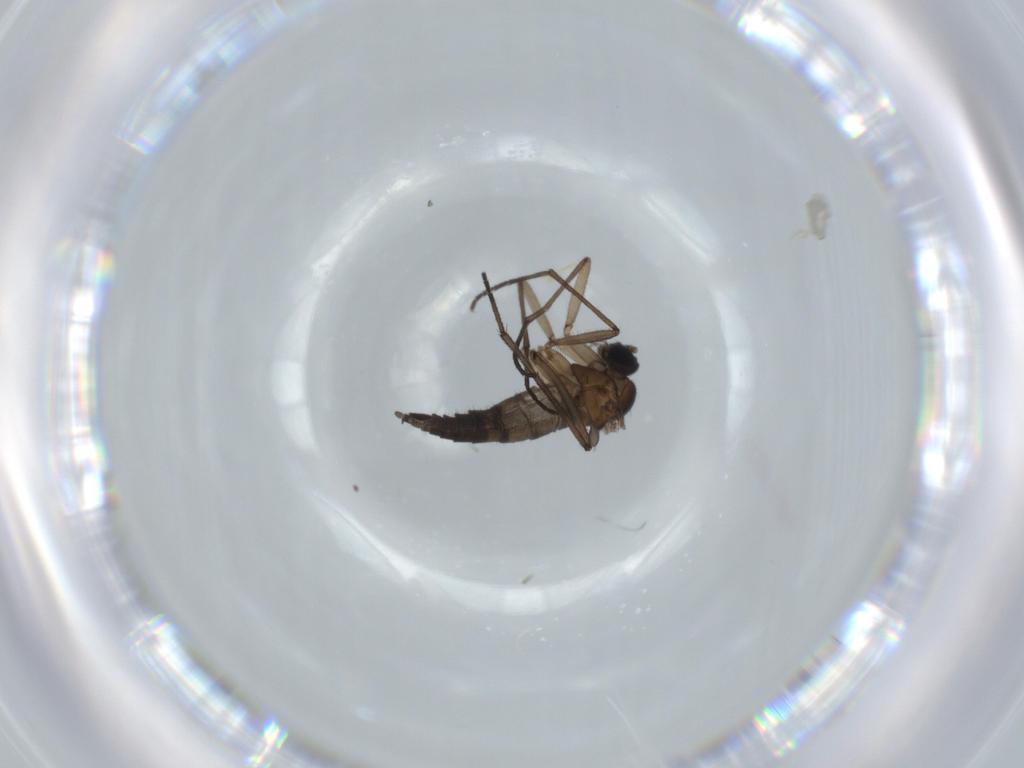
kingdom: Animalia
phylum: Arthropoda
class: Insecta
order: Diptera
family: Sciaridae
